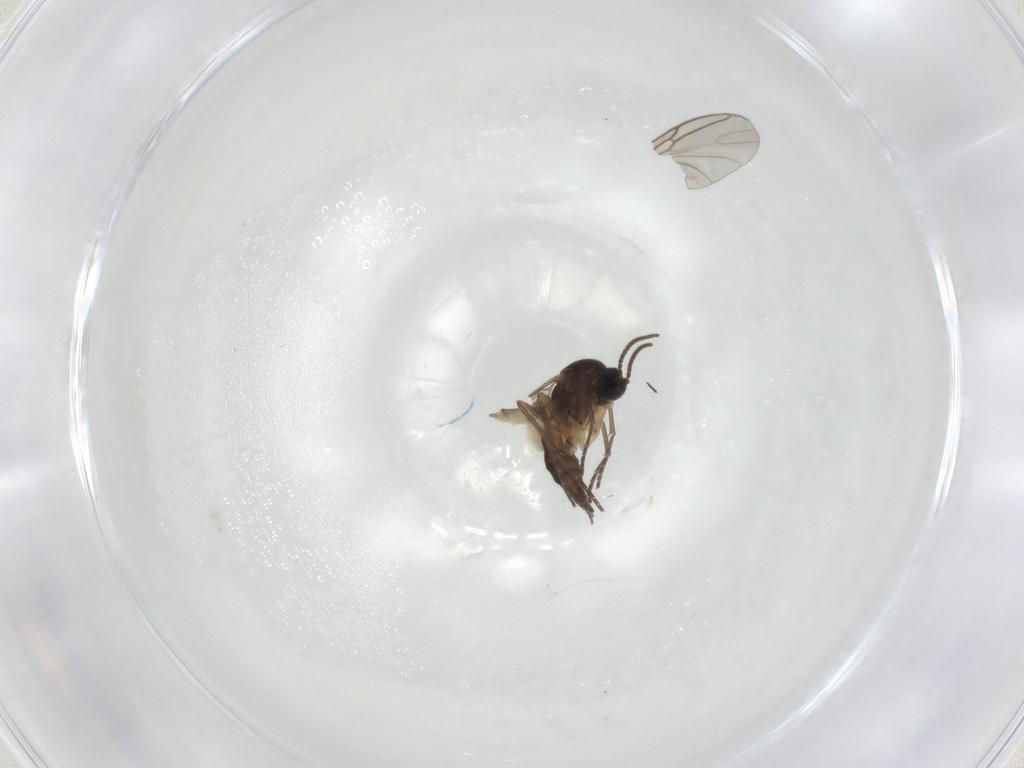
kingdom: Animalia
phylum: Arthropoda
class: Insecta
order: Diptera
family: Sciaridae
